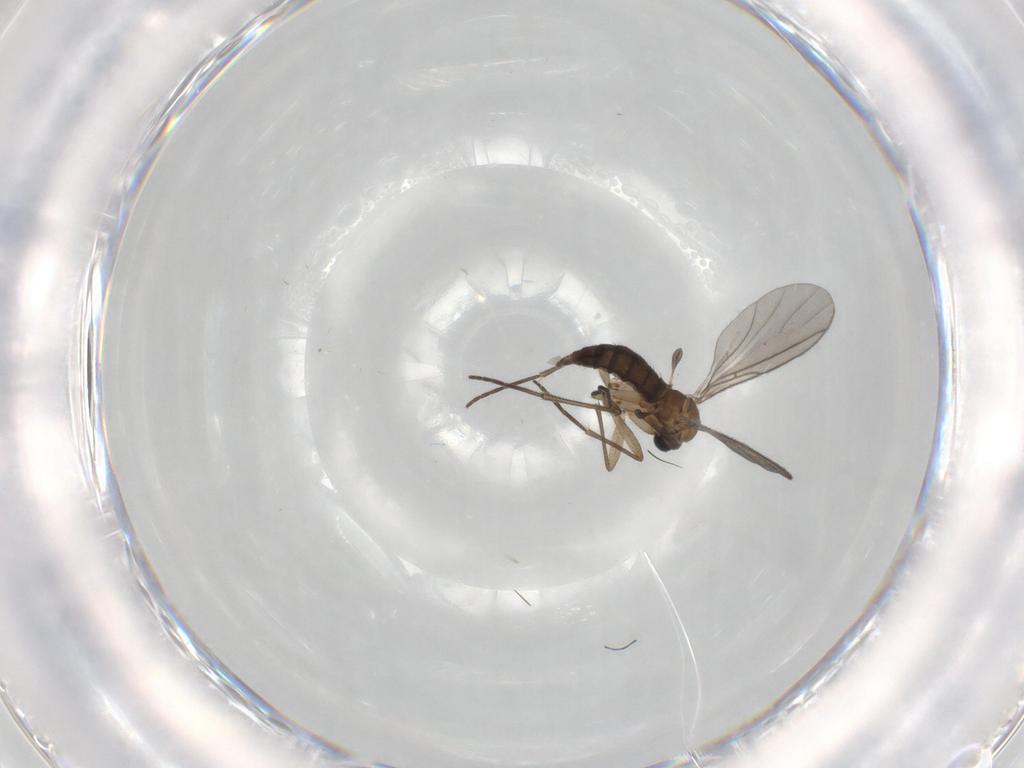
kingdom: Animalia
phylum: Arthropoda
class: Insecta
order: Diptera
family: Sciaridae
